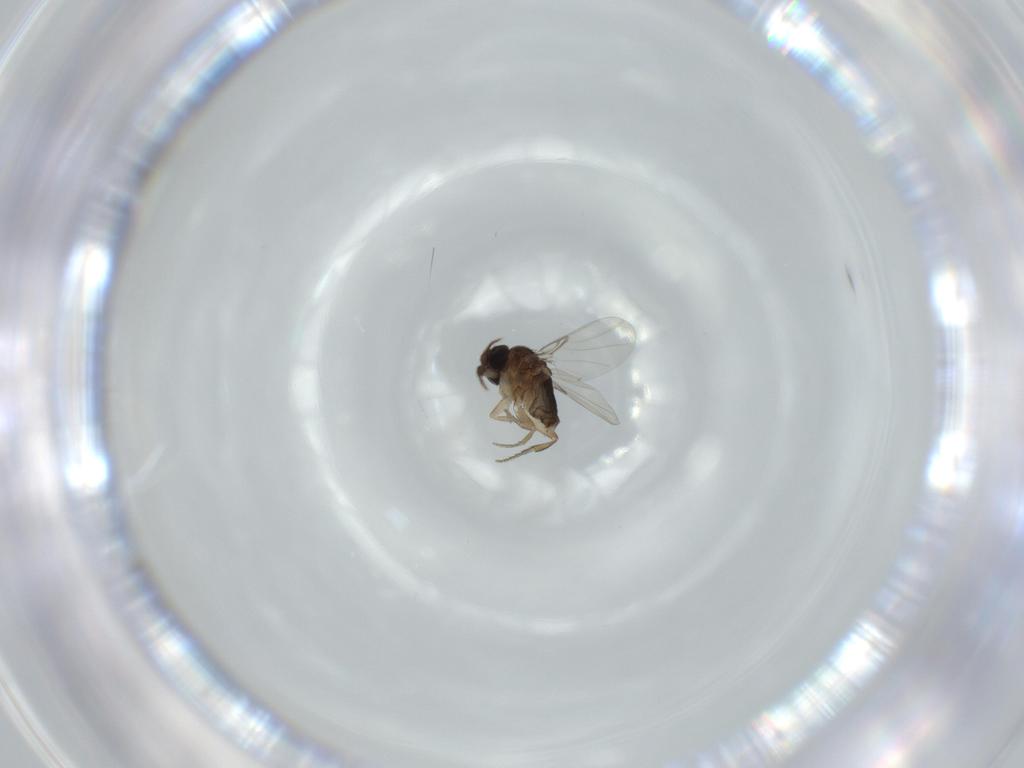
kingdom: Animalia
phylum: Arthropoda
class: Insecta
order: Diptera
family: Phoridae
